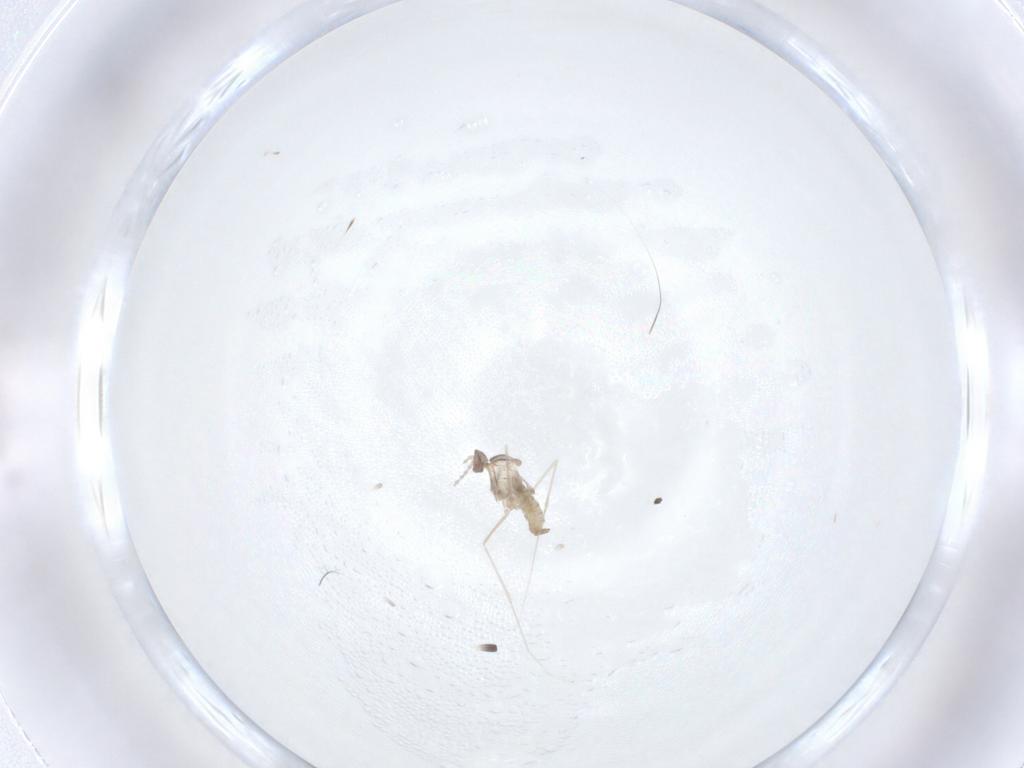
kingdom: Animalia
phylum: Arthropoda
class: Insecta
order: Diptera
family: Cecidomyiidae
